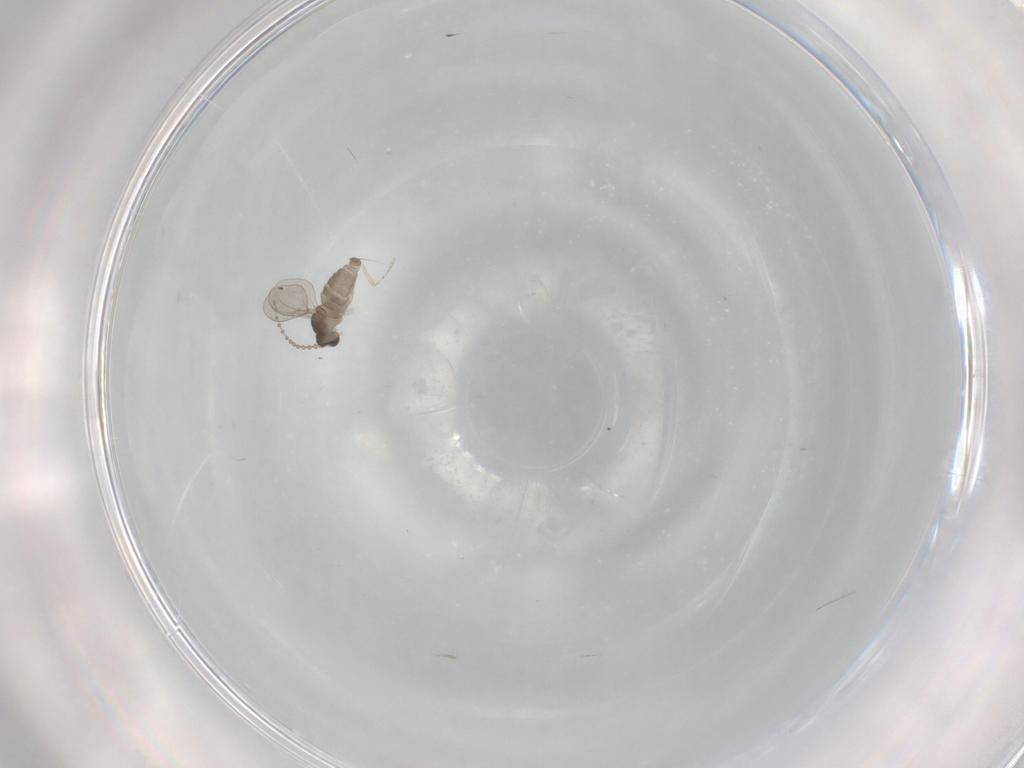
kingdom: Animalia
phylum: Arthropoda
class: Insecta
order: Diptera
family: Cecidomyiidae
